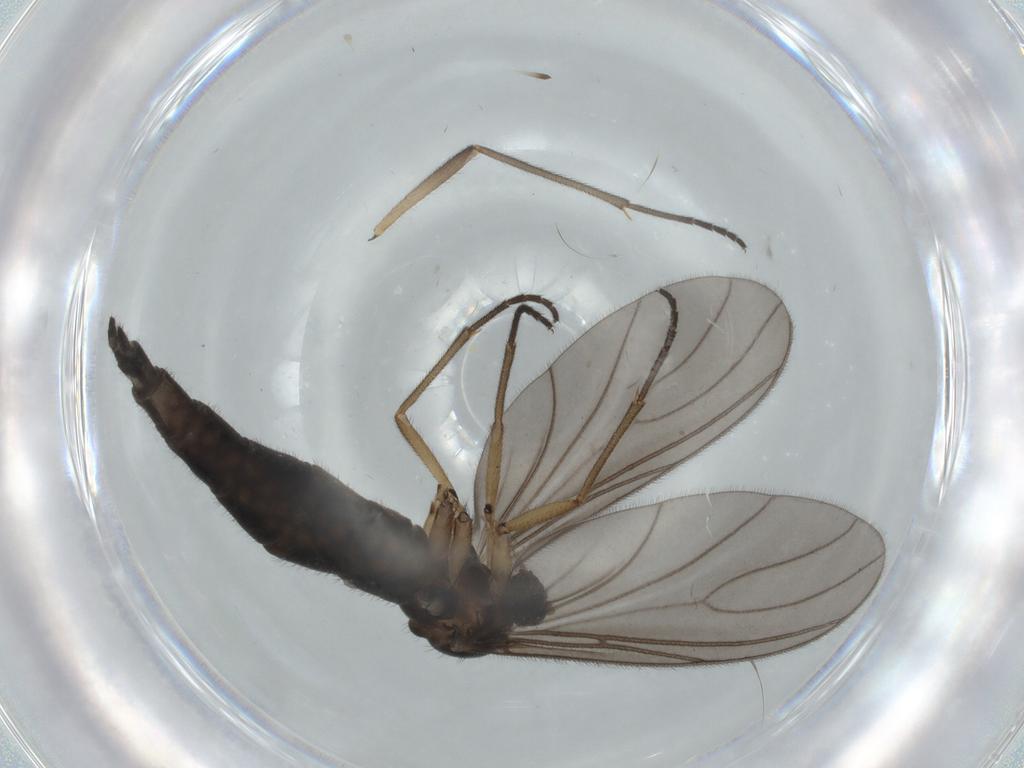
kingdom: Animalia
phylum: Arthropoda
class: Insecta
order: Diptera
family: Sciaridae
